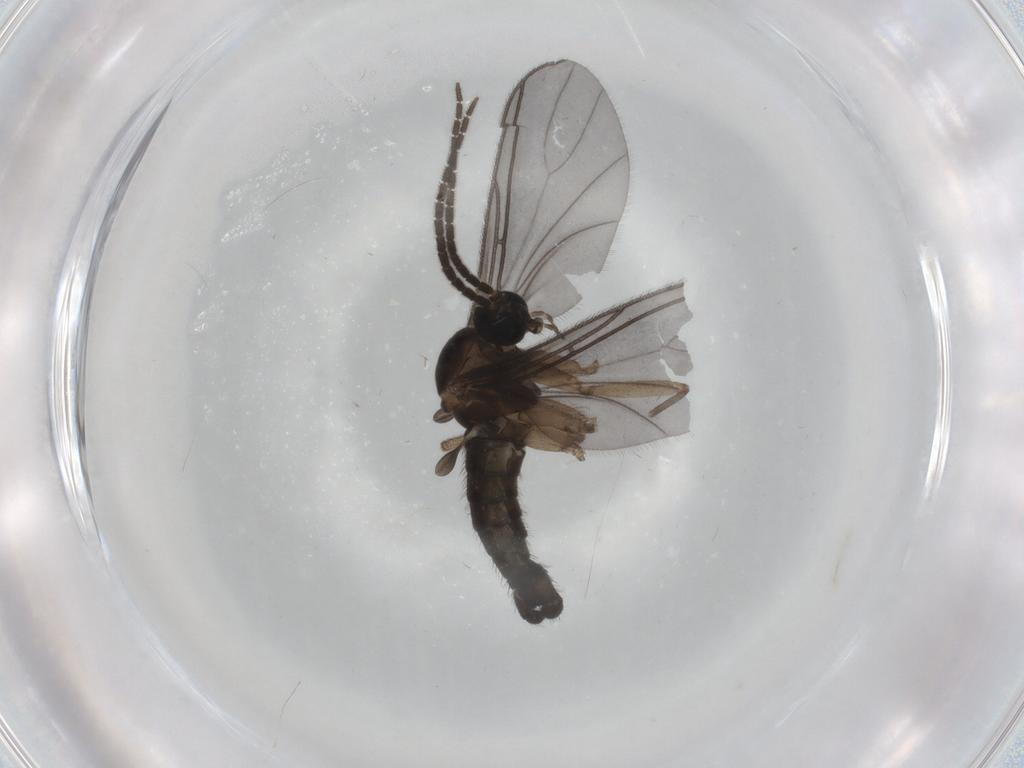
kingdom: Animalia
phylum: Arthropoda
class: Insecta
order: Diptera
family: Sciaridae
